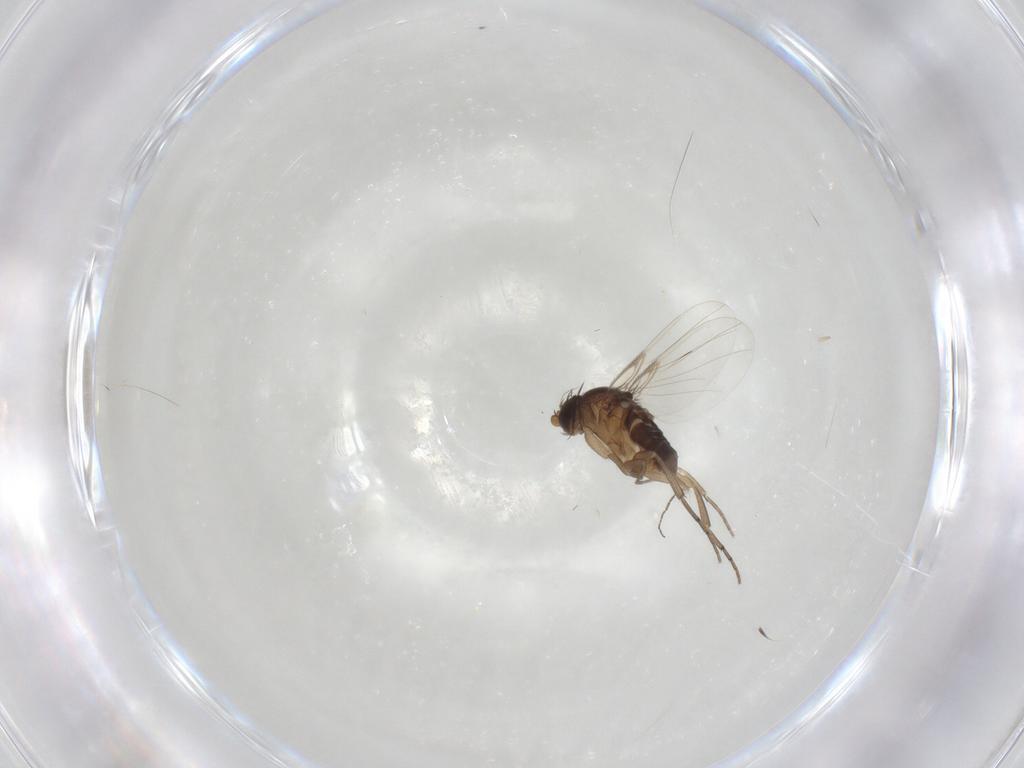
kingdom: Animalia
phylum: Arthropoda
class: Insecta
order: Diptera
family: Phoridae
